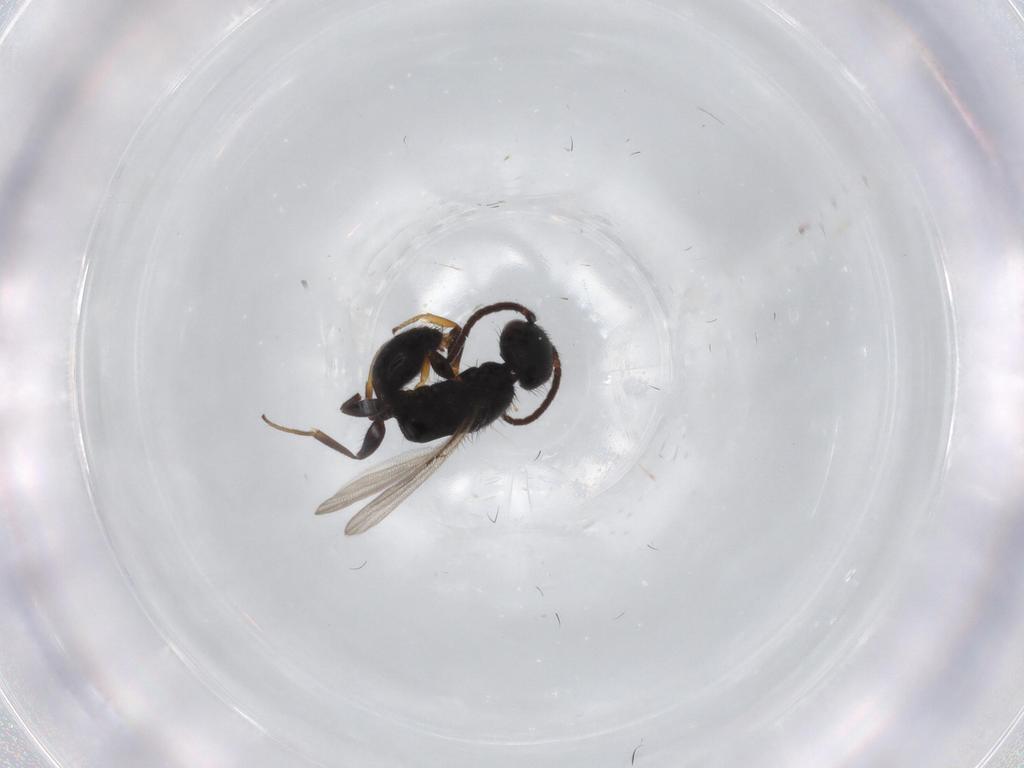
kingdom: Animalia
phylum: Arthropoda
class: Insecta
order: Hymenoptera
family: Bethylidae
